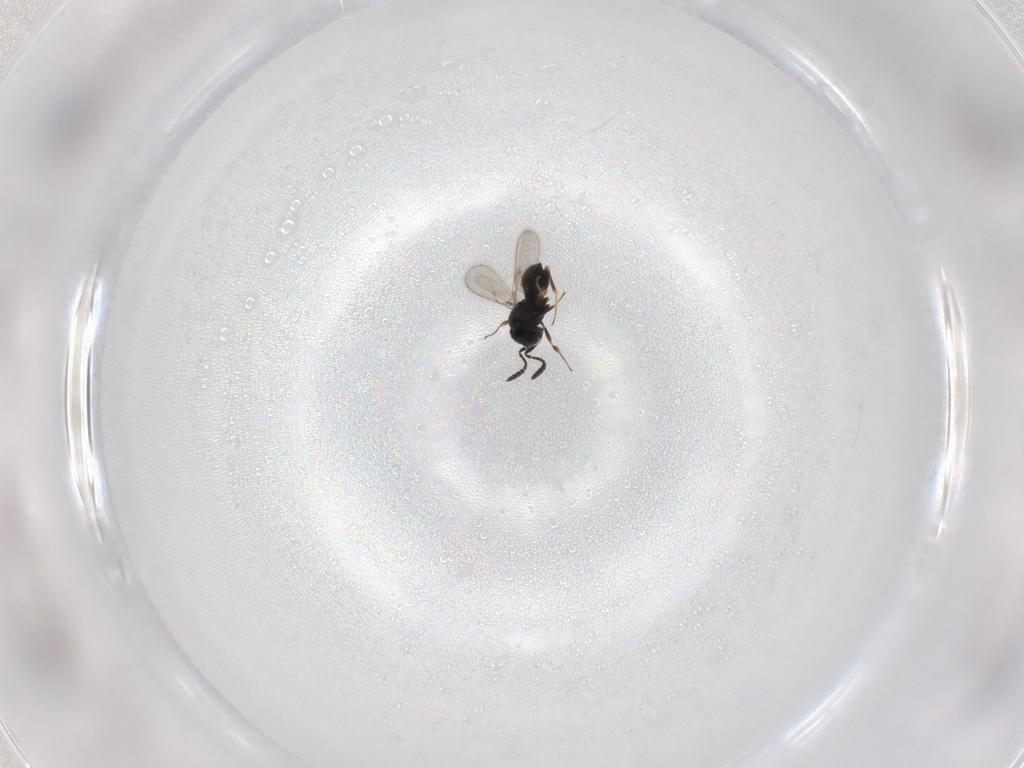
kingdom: Animalia
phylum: Arthropoda
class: Insecta
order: Hymenoptera
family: Scelionidae
